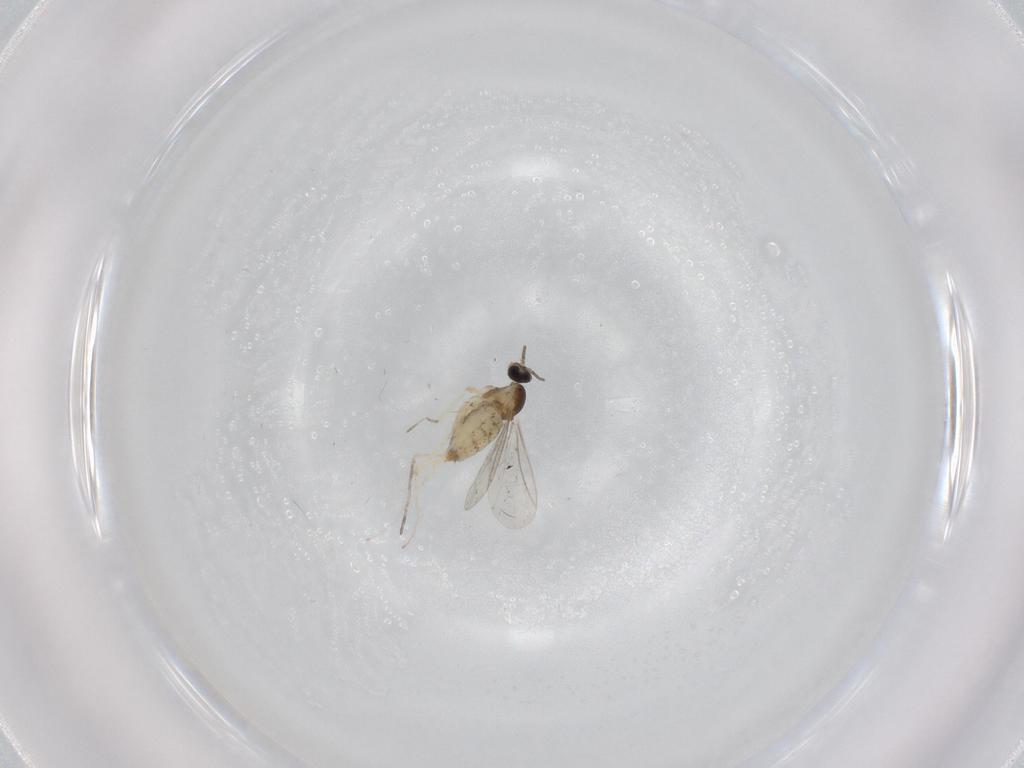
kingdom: Animalia
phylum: Arthropoda
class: Insecta
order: Diptera
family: Cecidomyiidae
